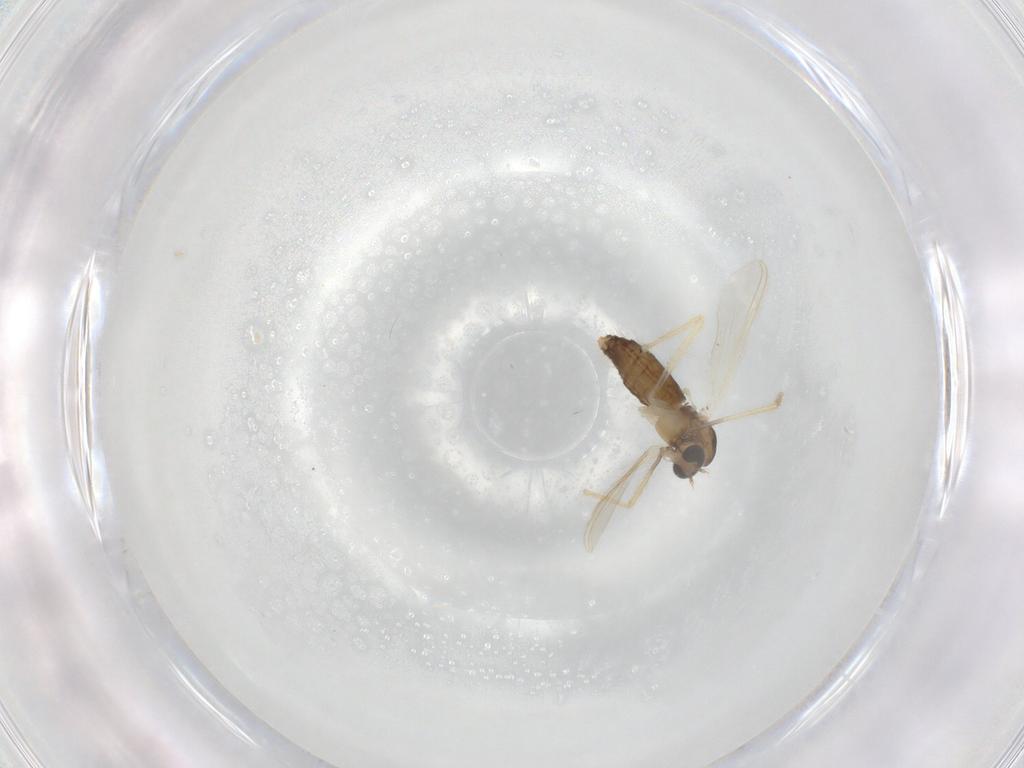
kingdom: Animalia
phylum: Arthropoda
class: Insecta
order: Diptera
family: Chironomidae
